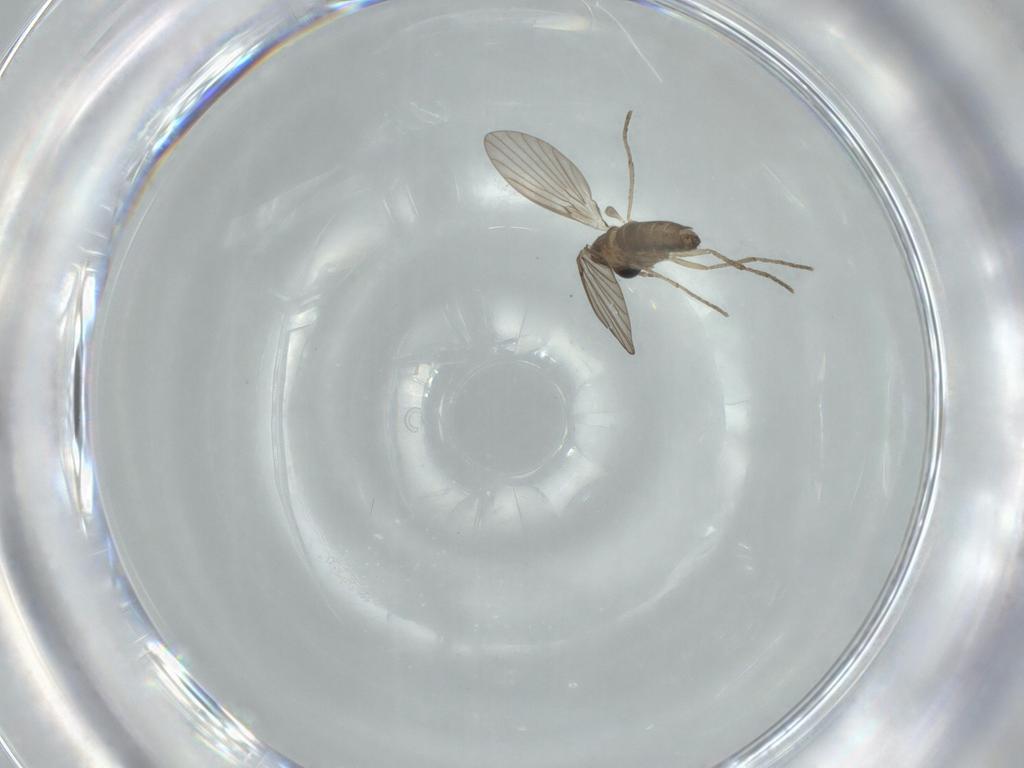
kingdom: Animalia
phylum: Arthropoda
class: Insecta
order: Diptera
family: Psychodidae
